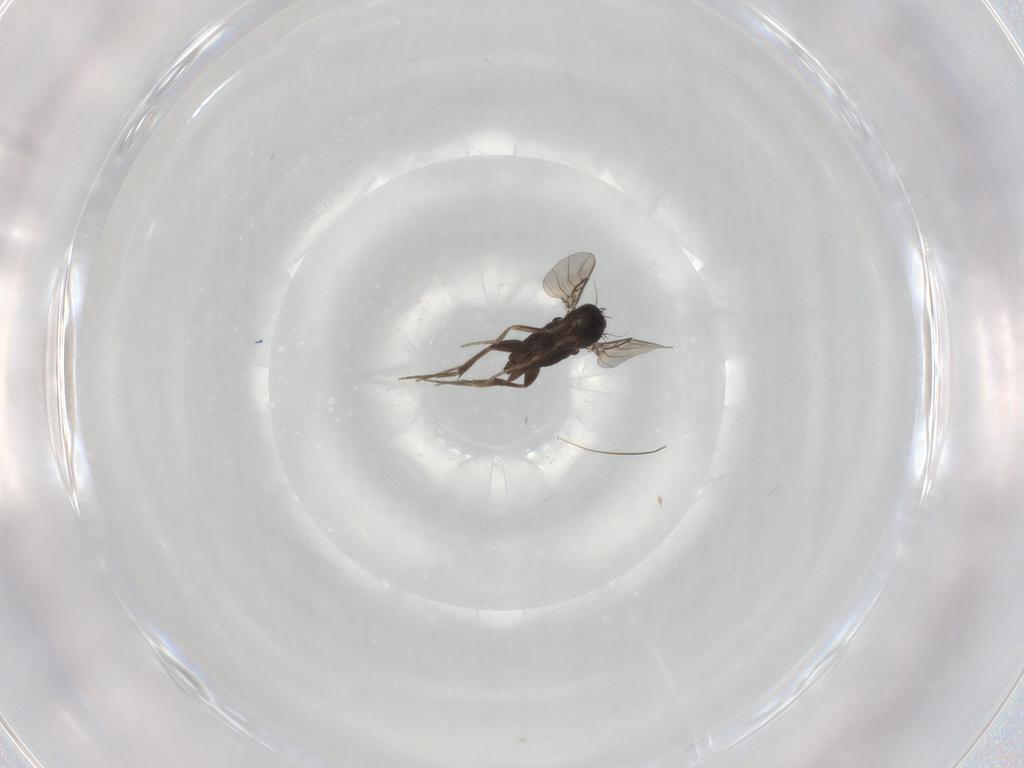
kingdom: Animalia
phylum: Arthropoda
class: Insecta
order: Diptera
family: Phoridae
